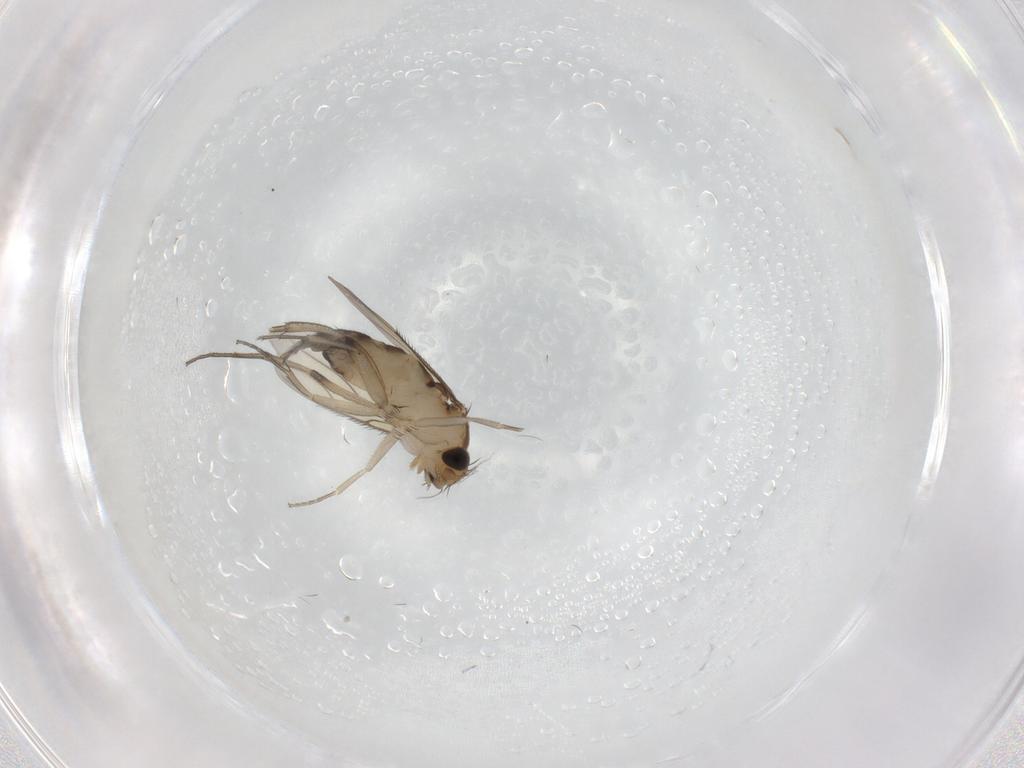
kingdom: Animalia
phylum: Arthropoda
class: Insecta
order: Diptera
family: Phoridae
